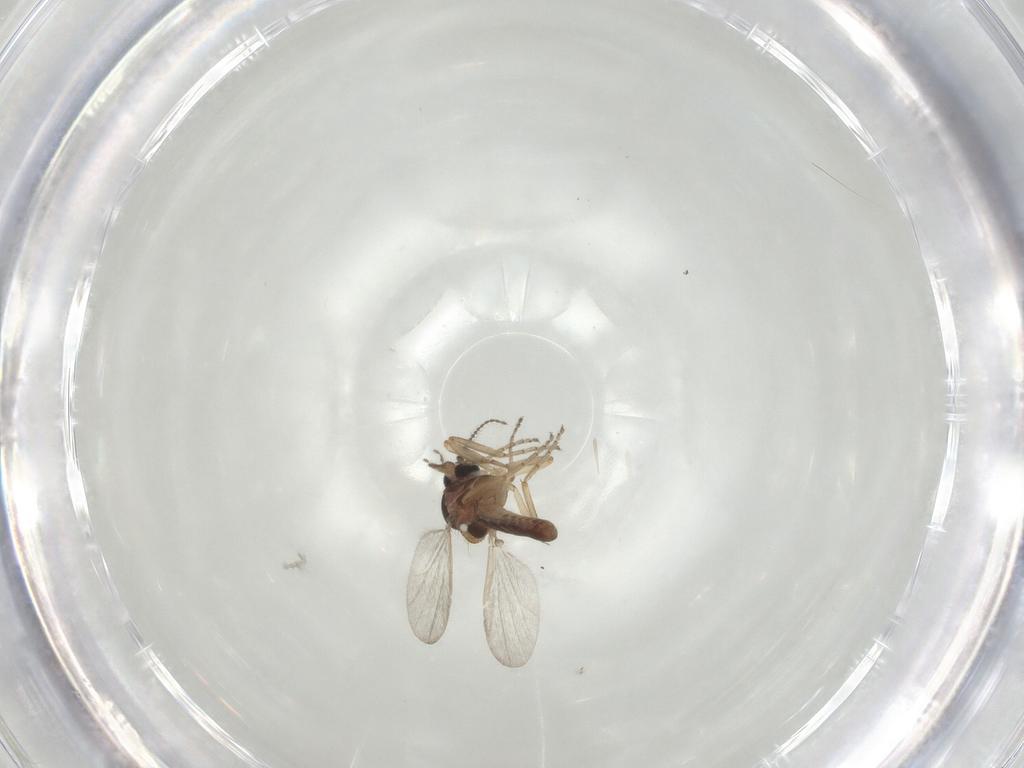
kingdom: Animalia
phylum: Arthropoda
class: Insecta
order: Diptera
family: Ceratopogonidae
